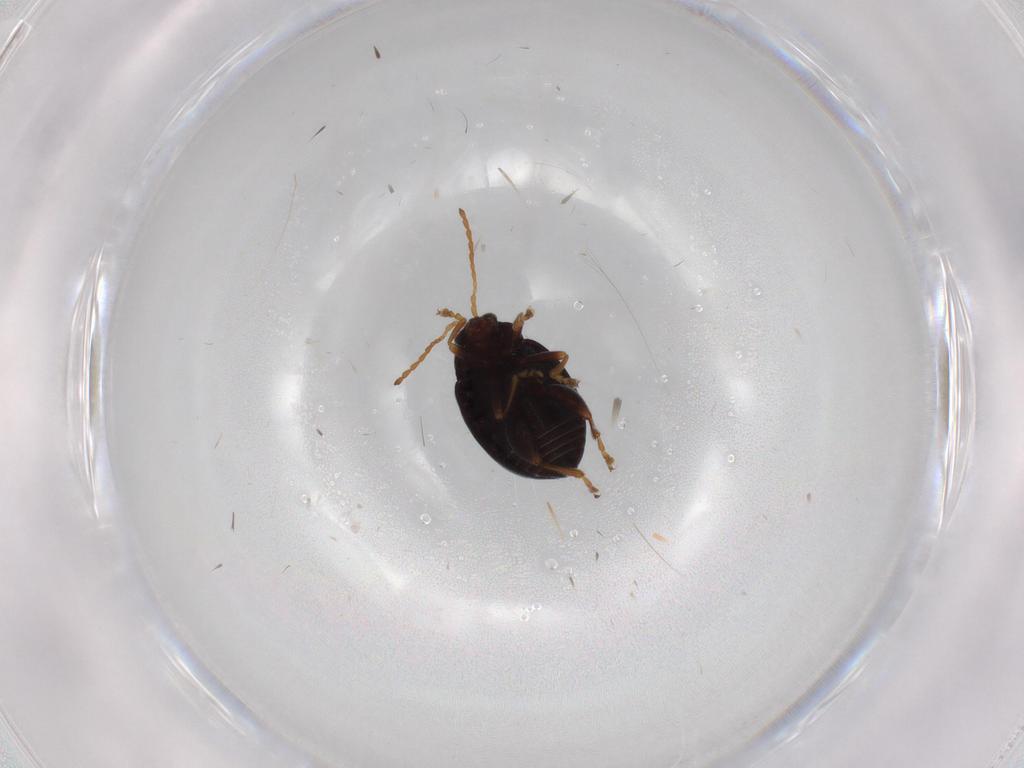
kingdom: Animalia
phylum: Arthropoda
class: Insecta
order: Coleoptera
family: Chrysomelidae
